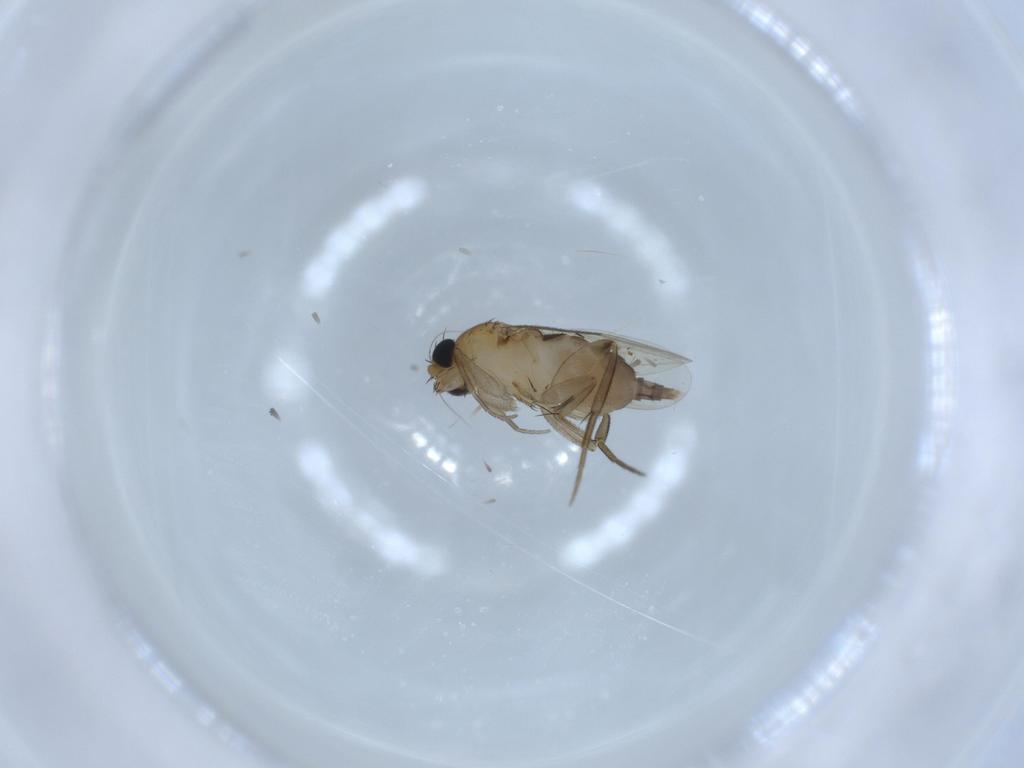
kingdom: Animalia
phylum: Arthropoda
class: Insecta
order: Diptera
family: Phoridae
